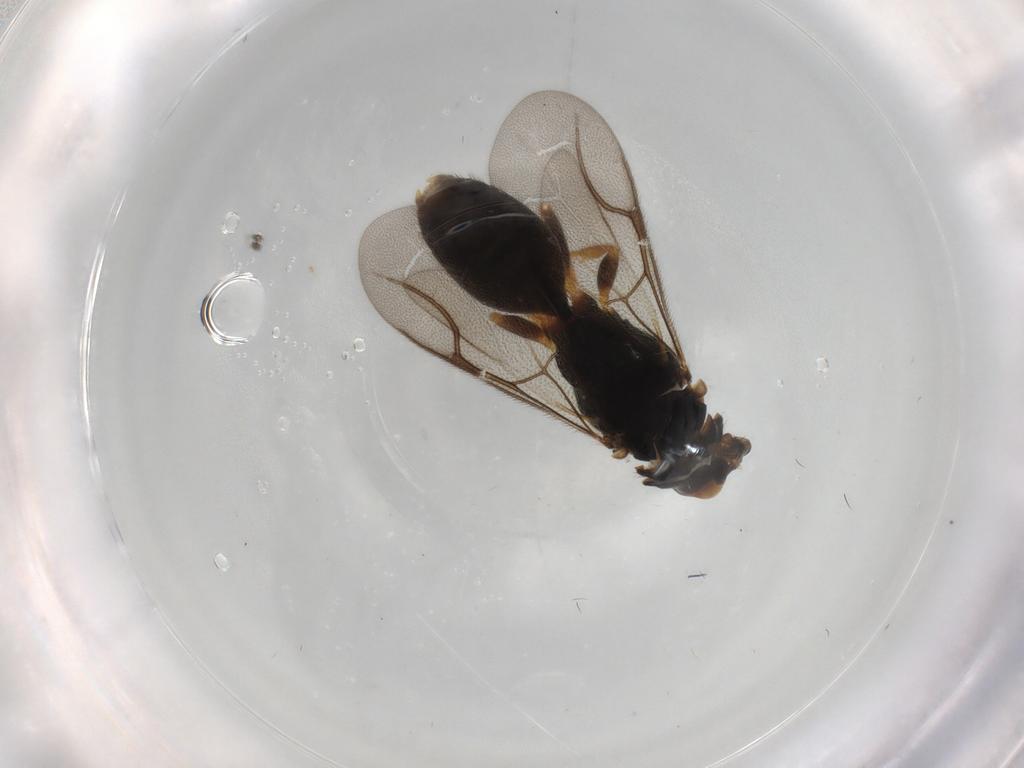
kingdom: Animalia
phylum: Arthropoda
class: Insecta
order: Hymenoptera
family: Bethylidae
